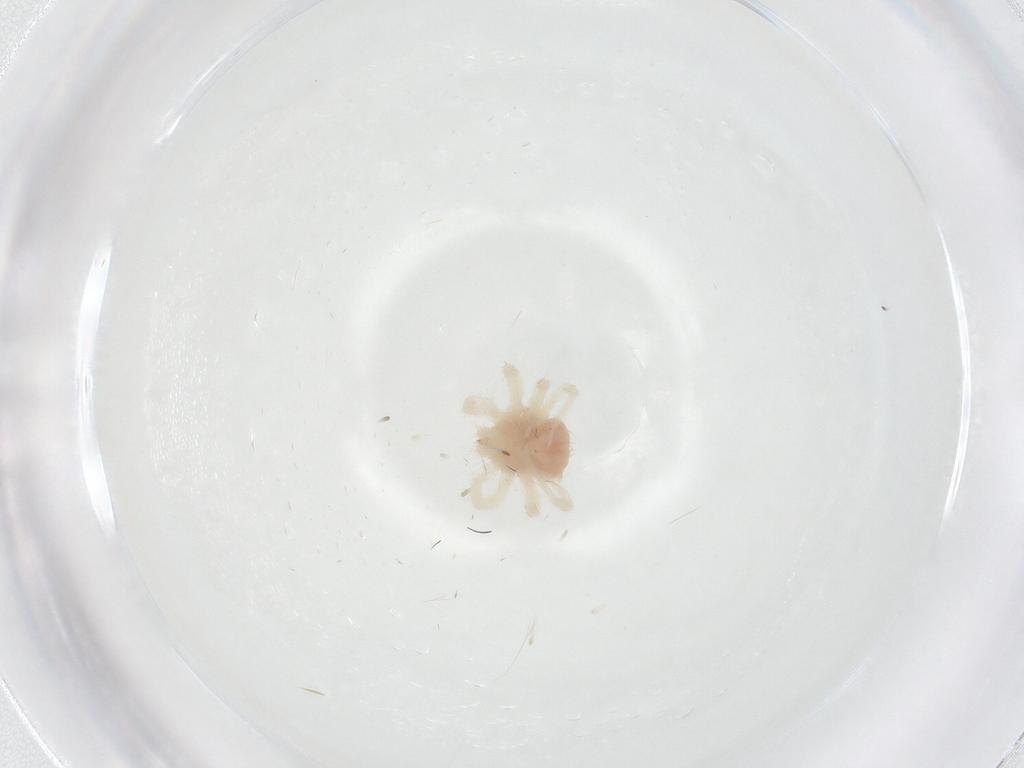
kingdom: Animalia
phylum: Arthropoda
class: Arachnida
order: Trombidiformes
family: Anystidae
